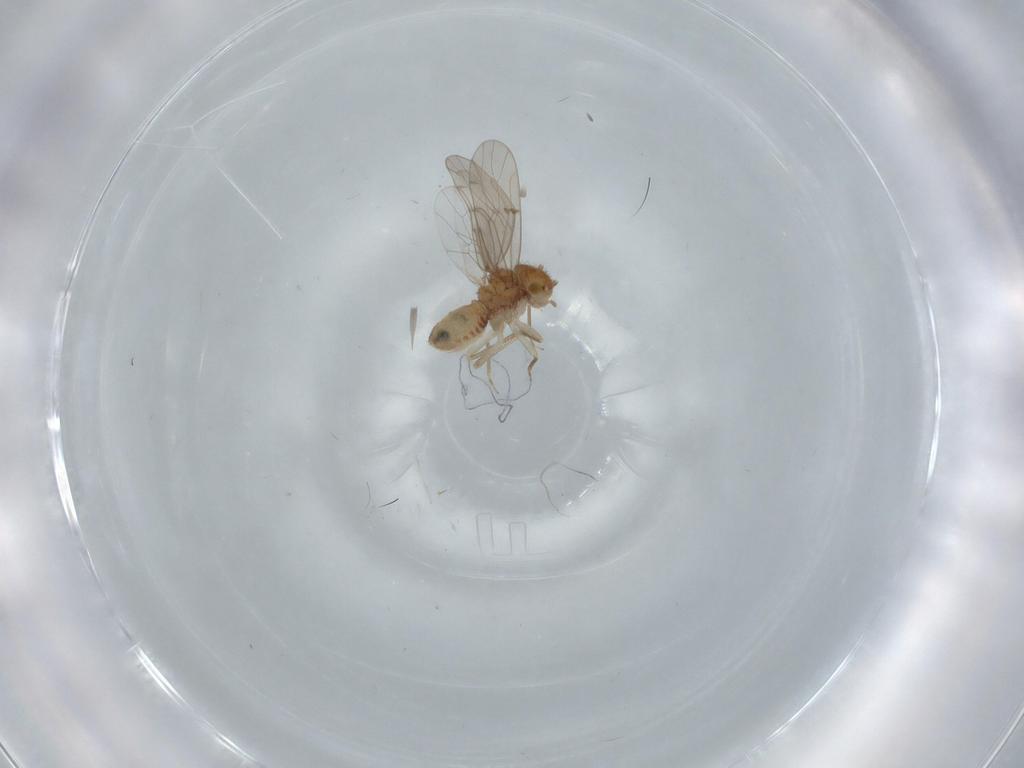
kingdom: Animalia
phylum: Arthropoda
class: Insecta
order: Psocodea
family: Ectopsocidae
